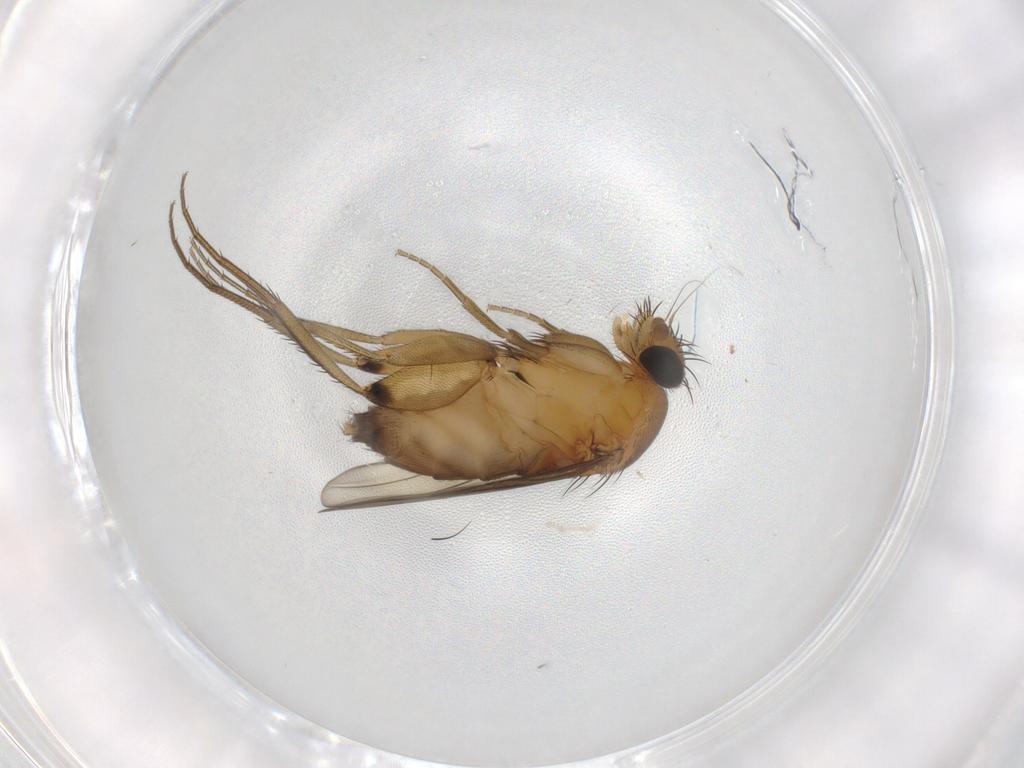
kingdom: Animalia
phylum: Arthropoda
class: Insecta
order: Diptera
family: Phoridae
